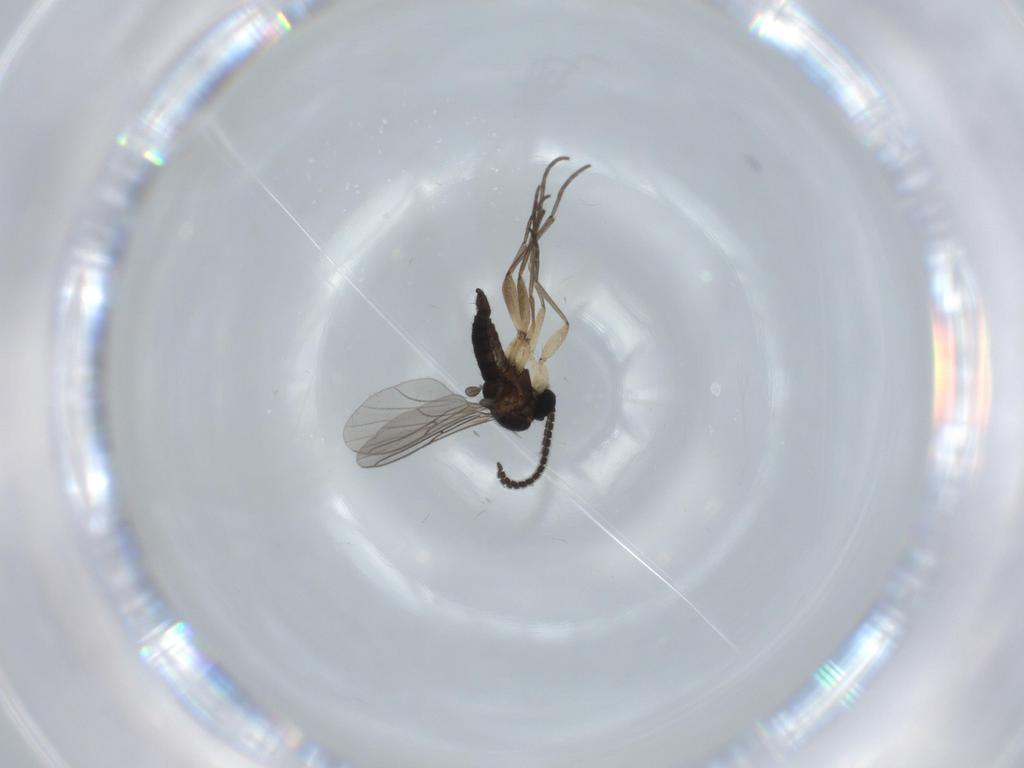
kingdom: Animalia
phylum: Arthropoda
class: Insecta
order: Diptera
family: Sciaridae
